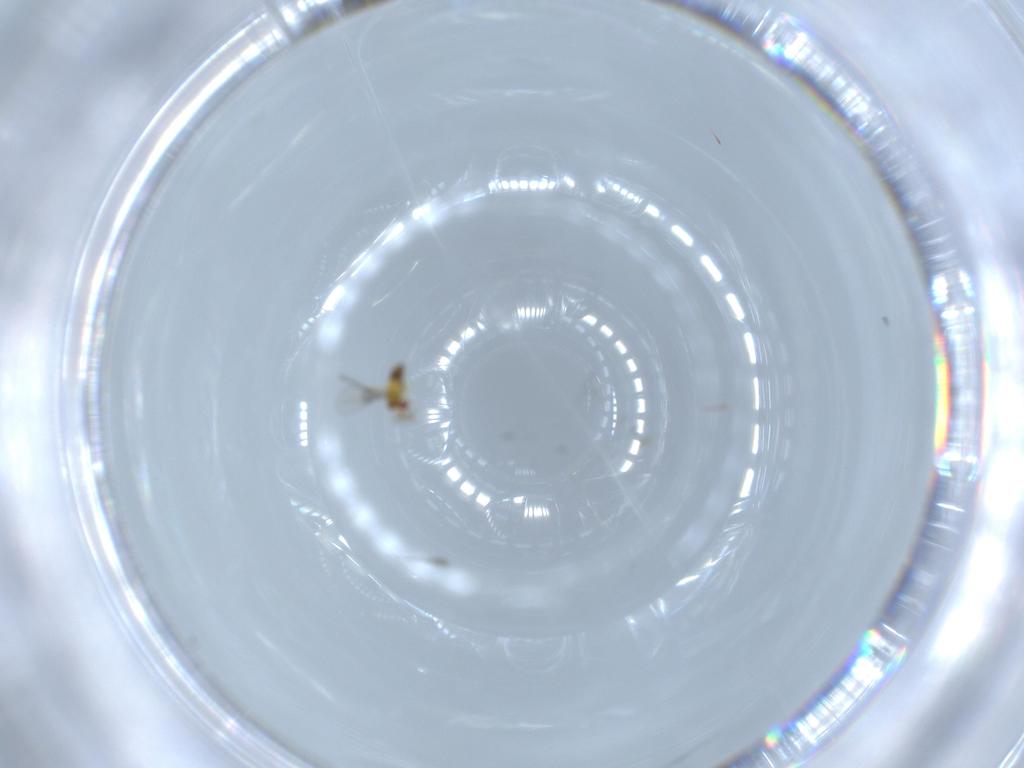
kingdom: Animalia
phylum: Arthropoda
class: Insecta
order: Hymenoptera
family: Trichogrammatidae
